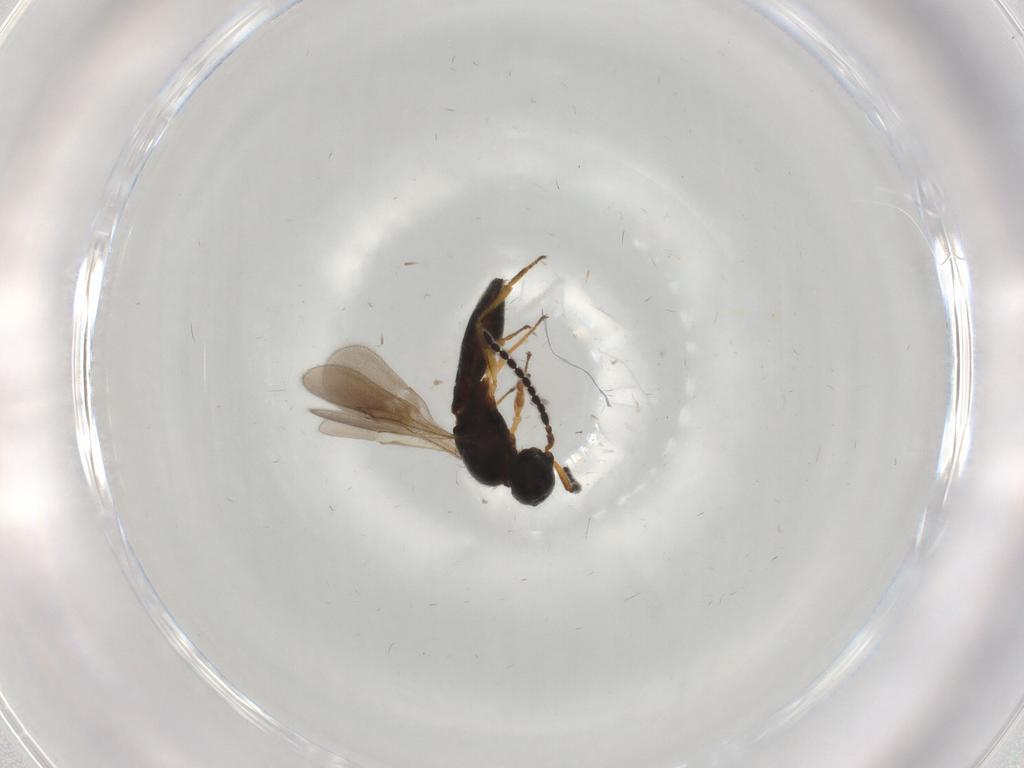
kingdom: Animalia
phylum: Arthropoda
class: Insecta
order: Hymenoptera
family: Scelionidae
